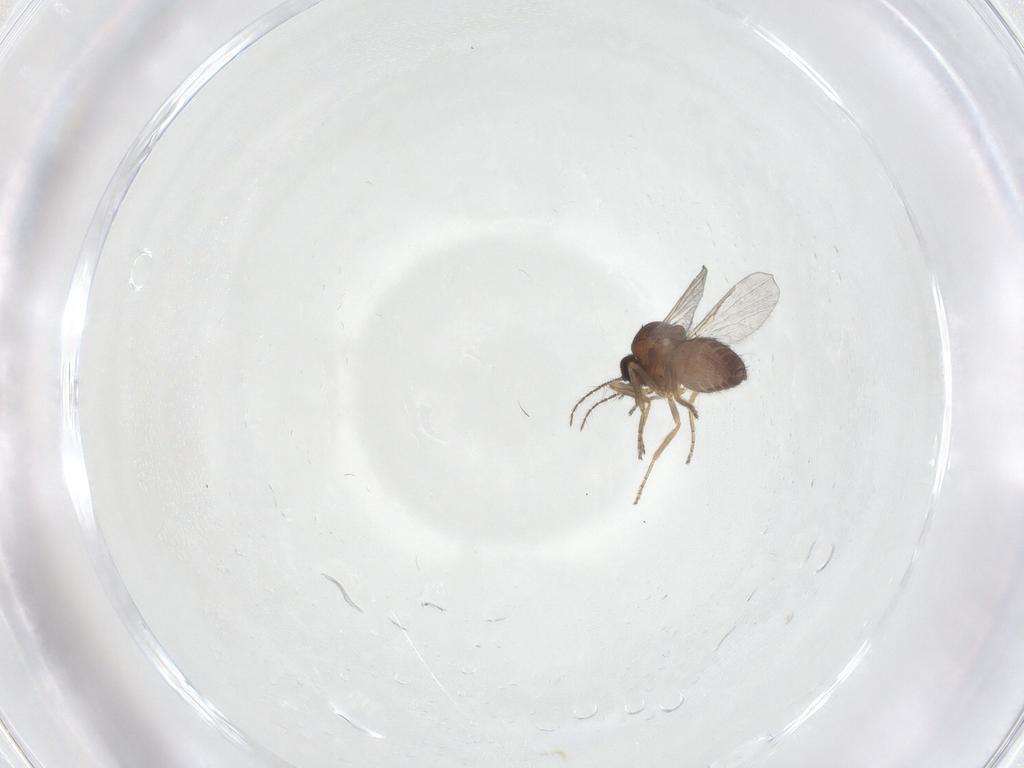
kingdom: Animalia
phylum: Arthropoda
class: Insecta
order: Diptera
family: Ceratopogonidae
